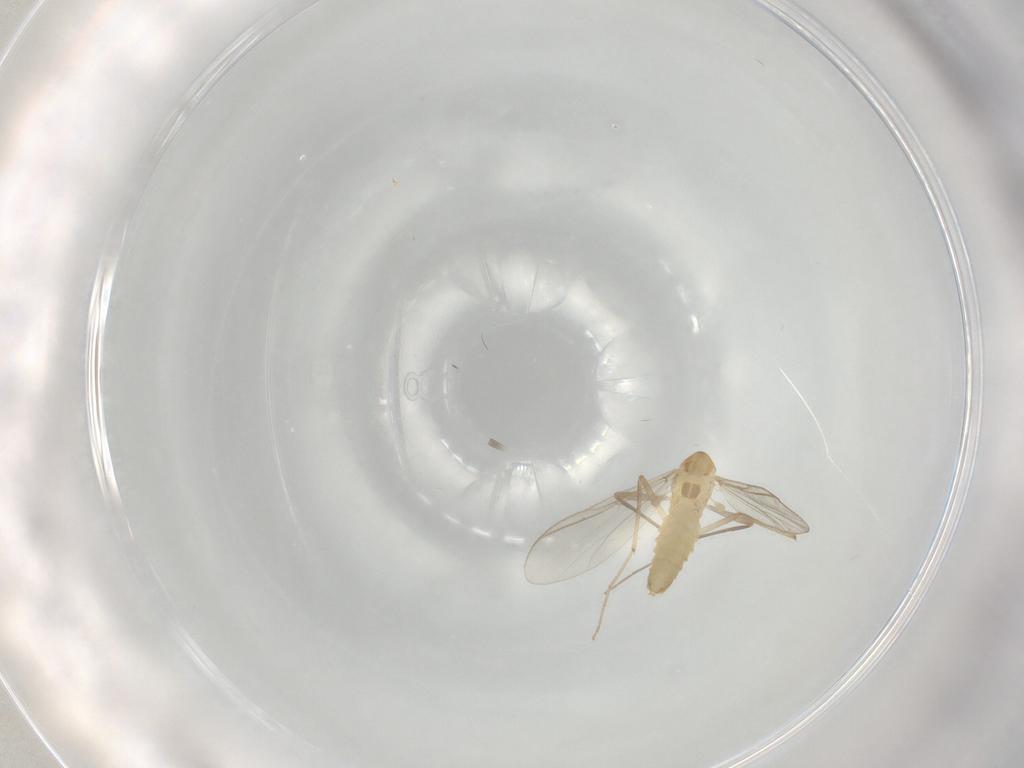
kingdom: Animalia
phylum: Arthropoda
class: Insecta
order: Diptera
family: Chironomidae
